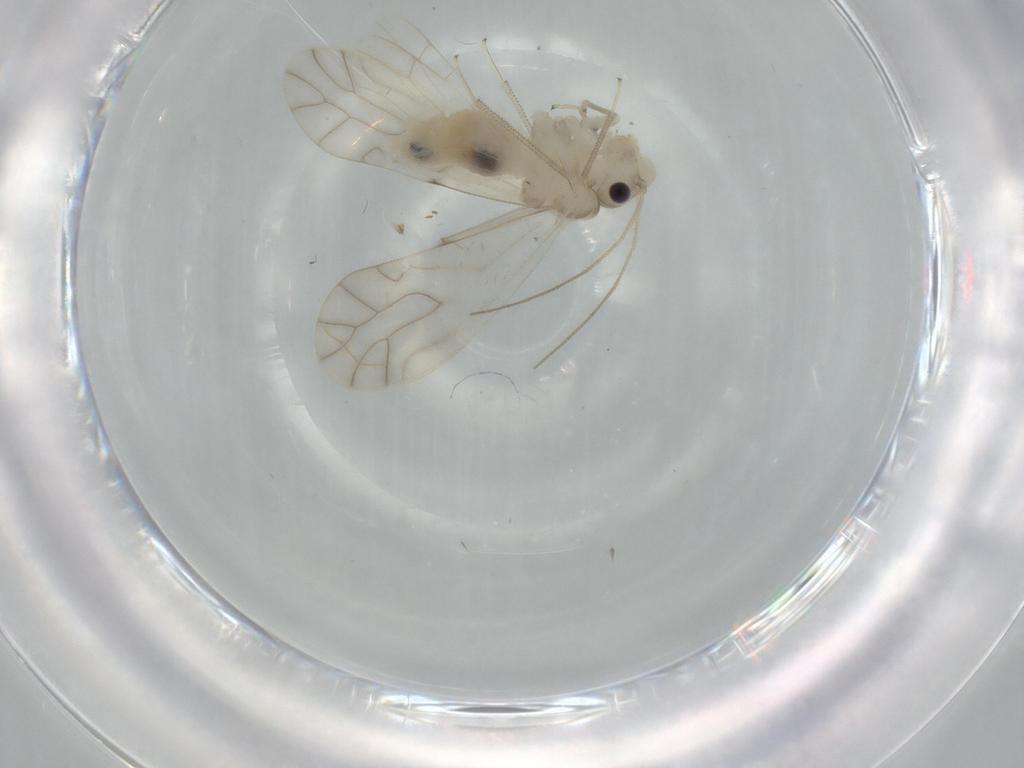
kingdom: Animalia
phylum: Arthropoda
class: Insecta
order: Psocodea
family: Caeciliusidae
